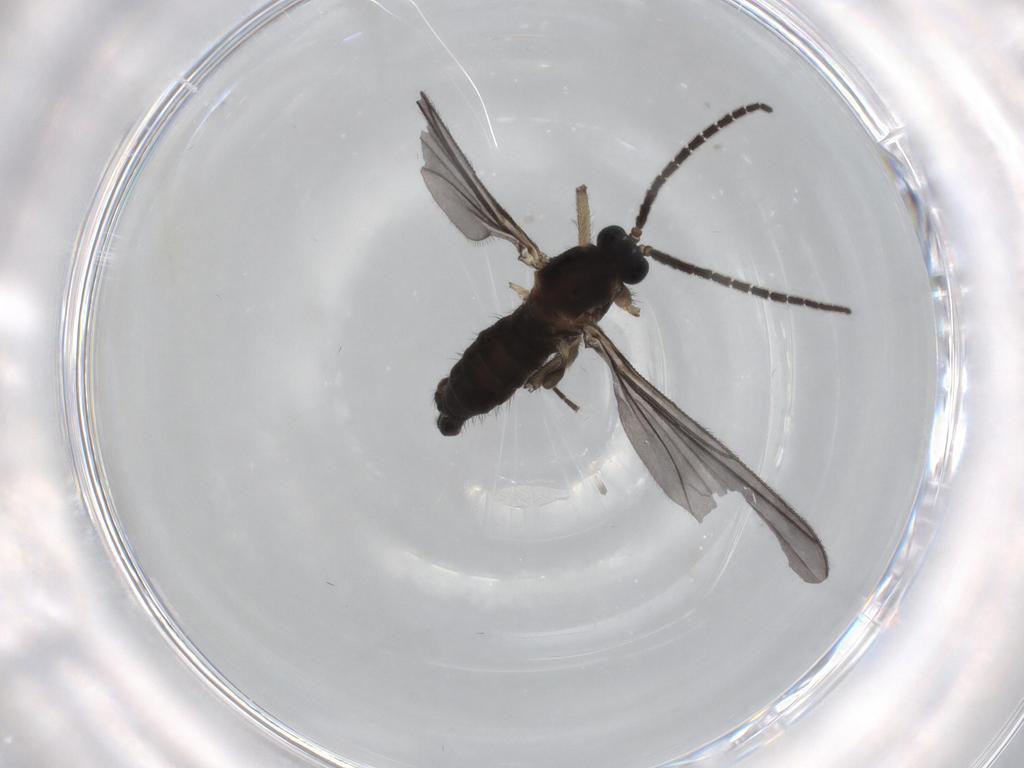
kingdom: Animalia
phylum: Arthropoda
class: Insecta
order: Diptera
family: Sciaridae
